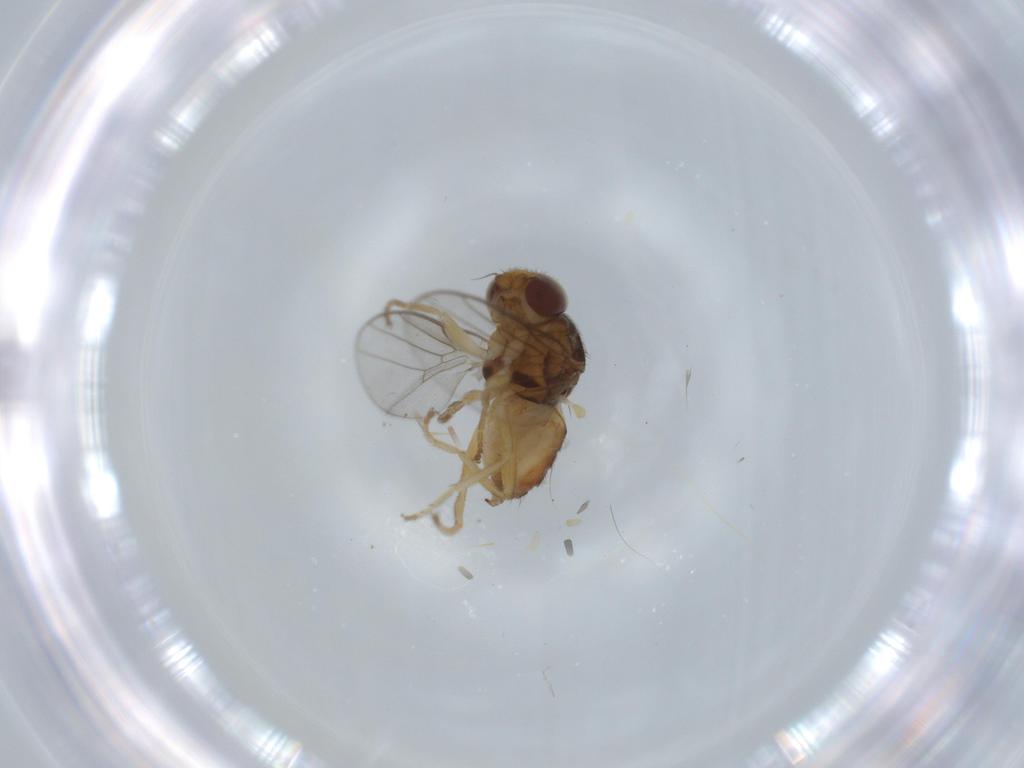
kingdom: Animalia
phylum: Arthropoda
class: Insecta
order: Diptera
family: Chloropidae
